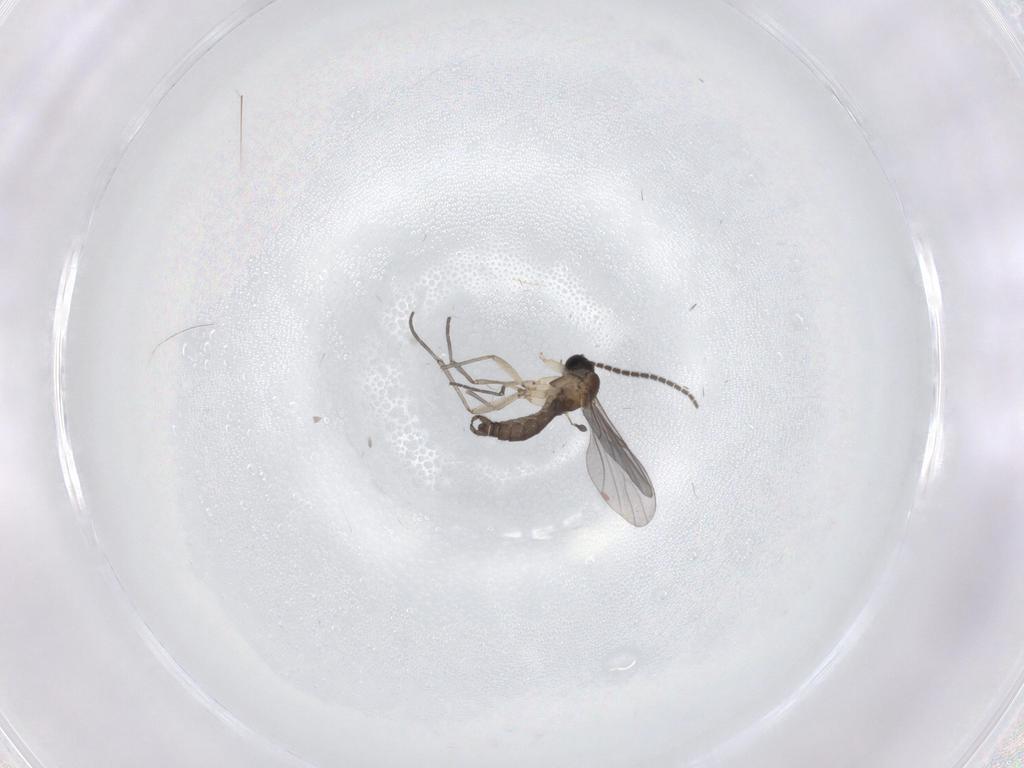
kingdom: Animalia
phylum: Arthropoda
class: Insecta
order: Diptera
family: Sciaridae
